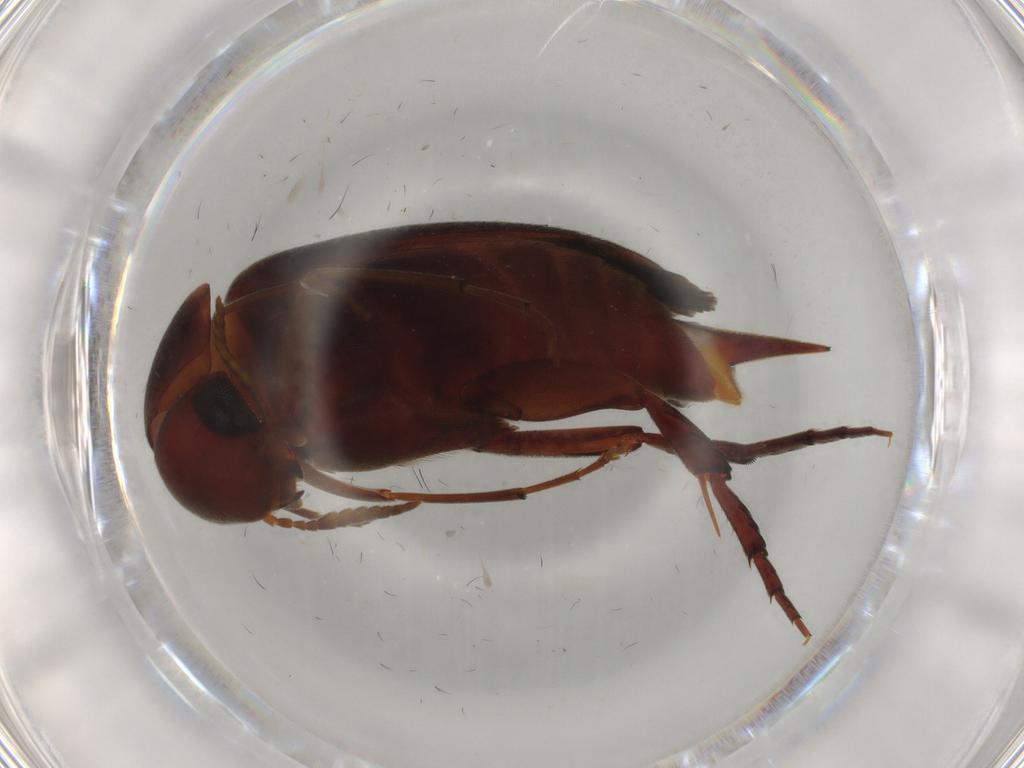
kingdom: Animalia
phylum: Arthropoda
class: Insecta
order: Coleoptera
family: Mordellidae
